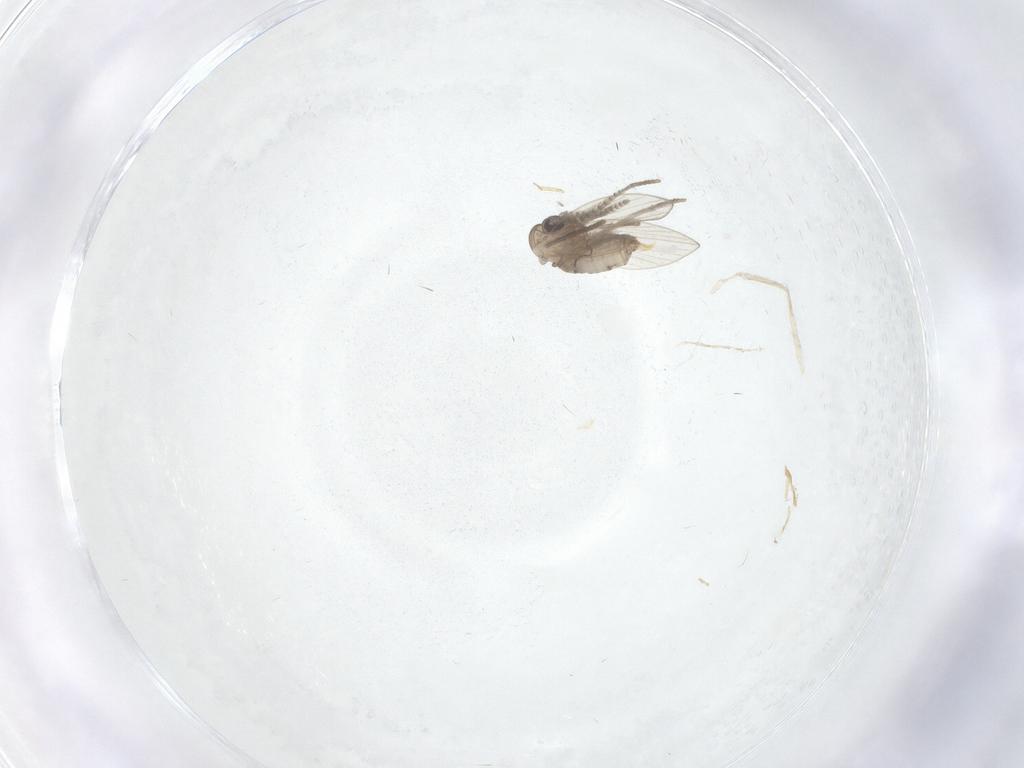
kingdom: Animalia
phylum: Arthropoda
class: Insecta
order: Diptera
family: Psychodidae
